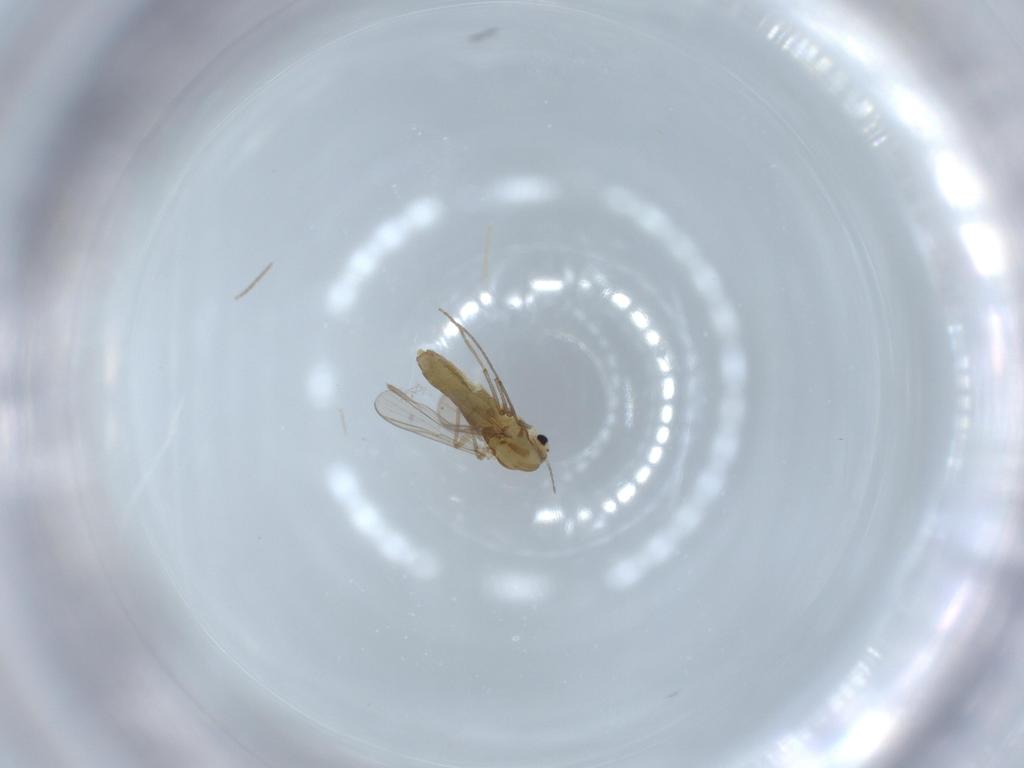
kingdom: Animalia
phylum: Arthropoda
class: Insecta
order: Diptera
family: Chironomidae
